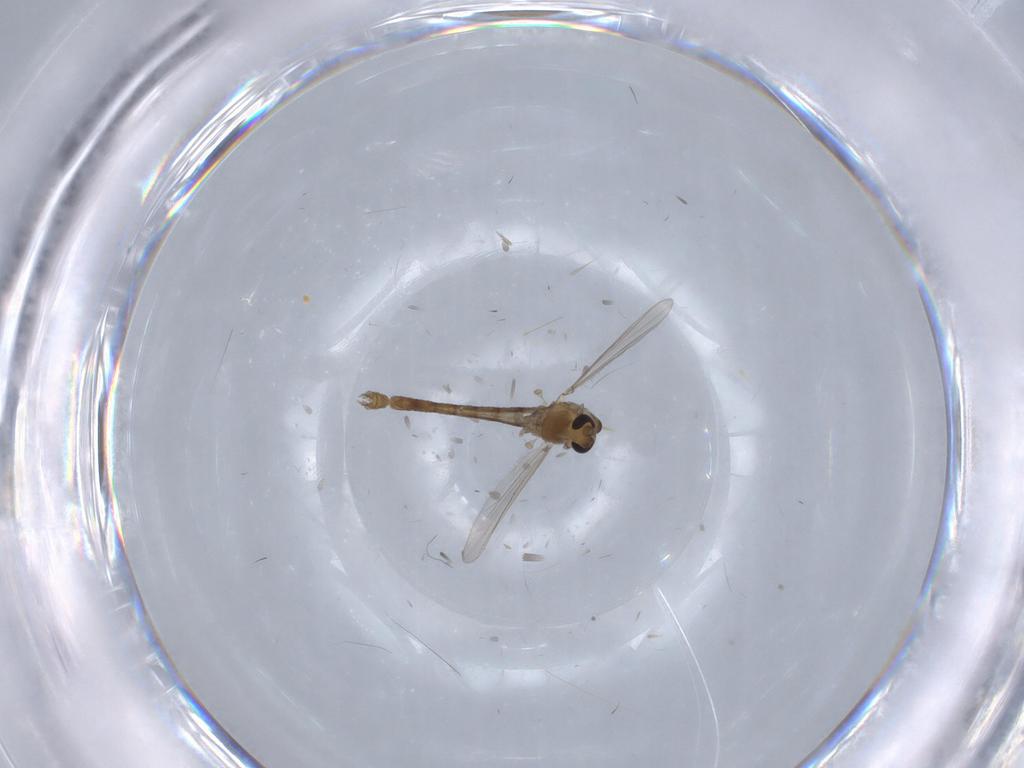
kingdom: Animalia
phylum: Arthropoda
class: Insecta
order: Diptera
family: Chironomidae
